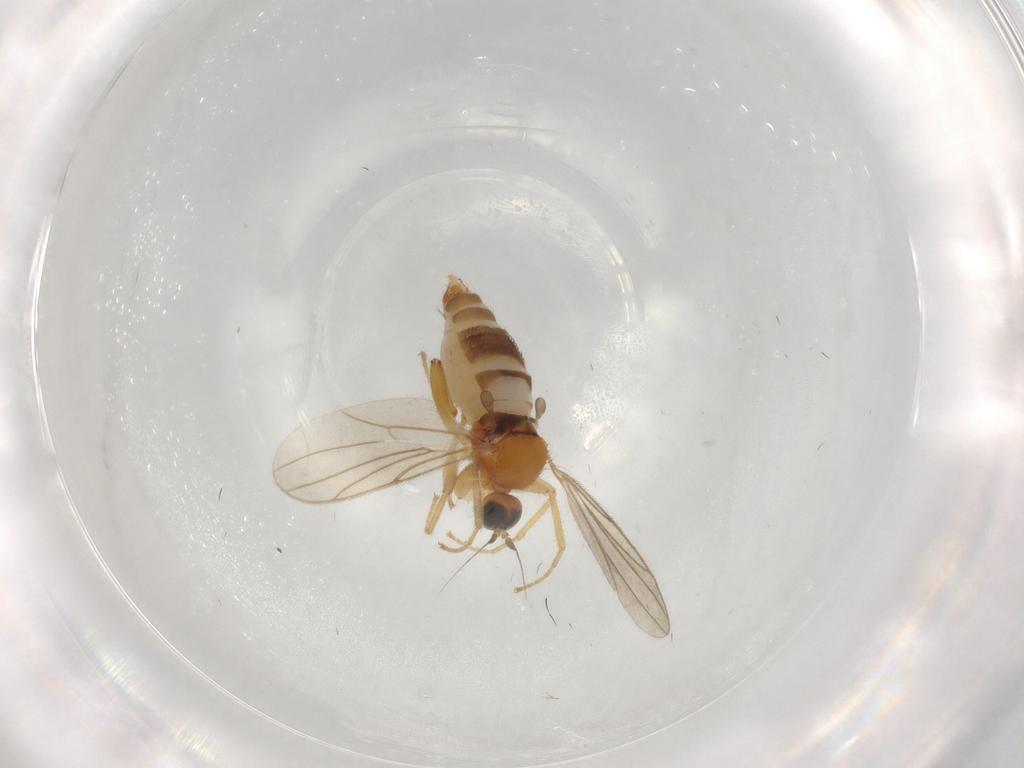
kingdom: Animalia
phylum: Arthropoda
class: Insecta
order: Diptera
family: Hybotidae
